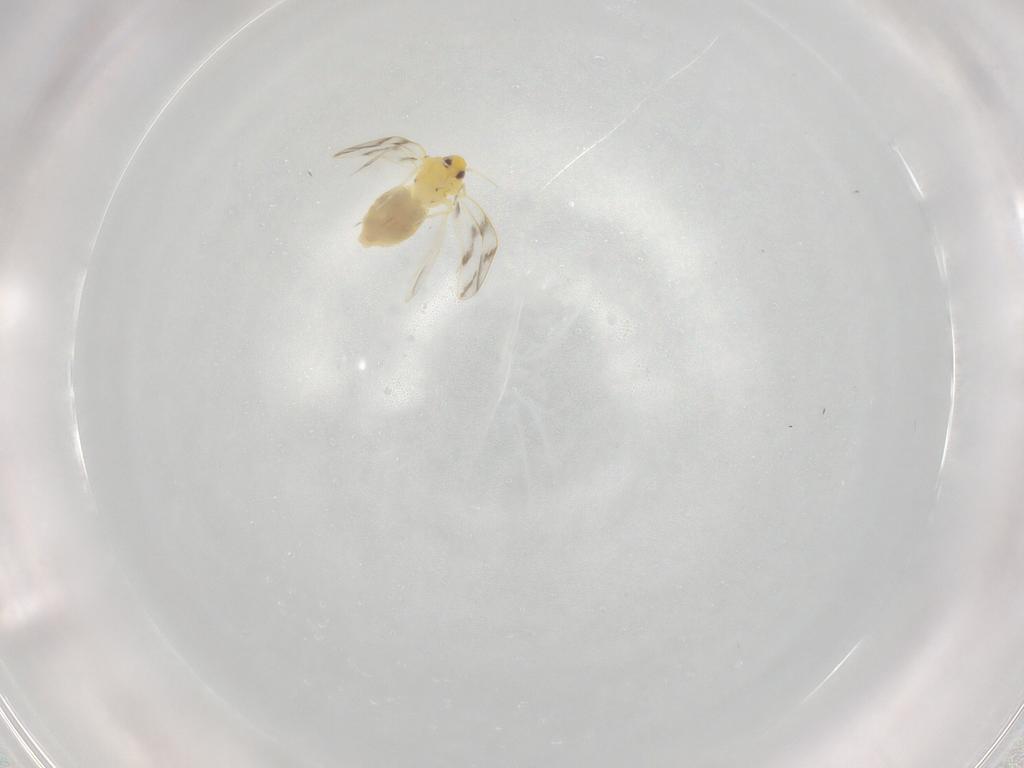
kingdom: Animalia
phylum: Arthropoda
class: Insecta
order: Hemiptera
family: Aleyrodidae
